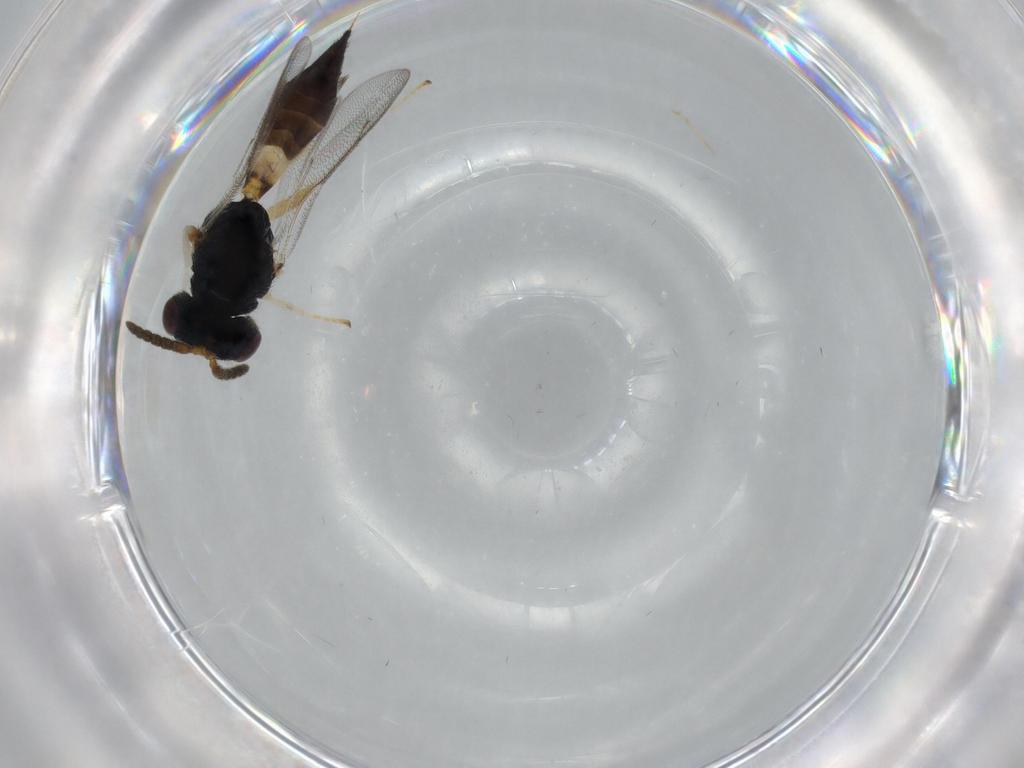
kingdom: Animalia
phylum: Arthropoda
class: Insecta
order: Hymenoptera
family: Pteromalidae
